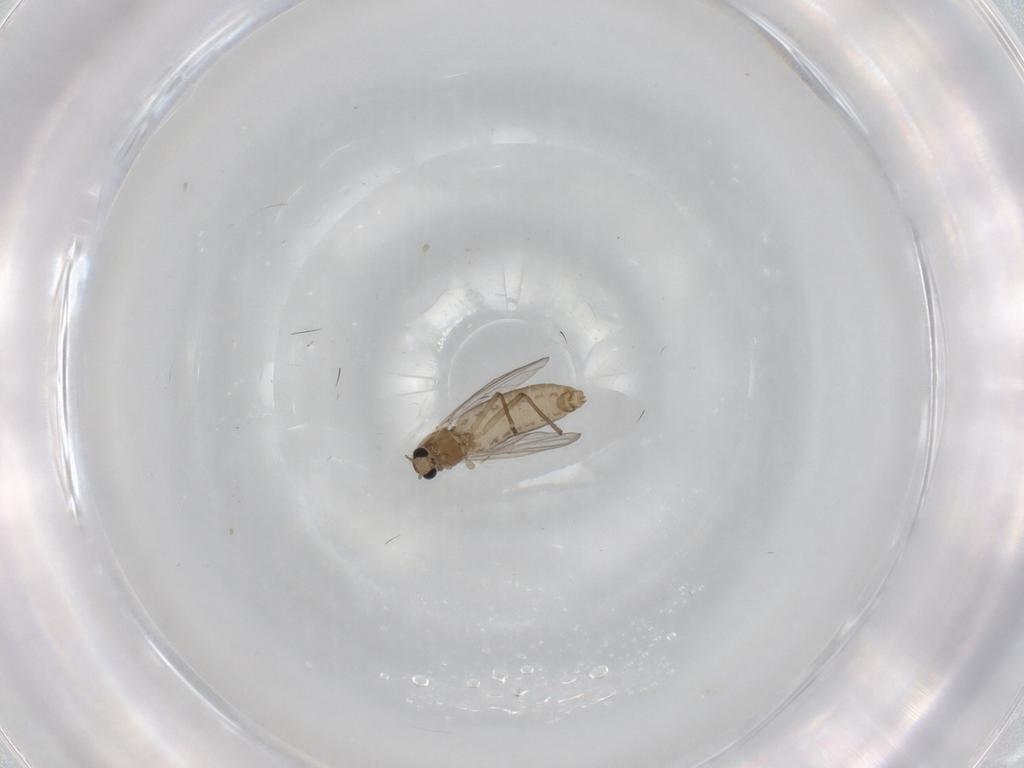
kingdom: Animalia
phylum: Arthropoda
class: Insecta
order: Diptera
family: Chironomidae
